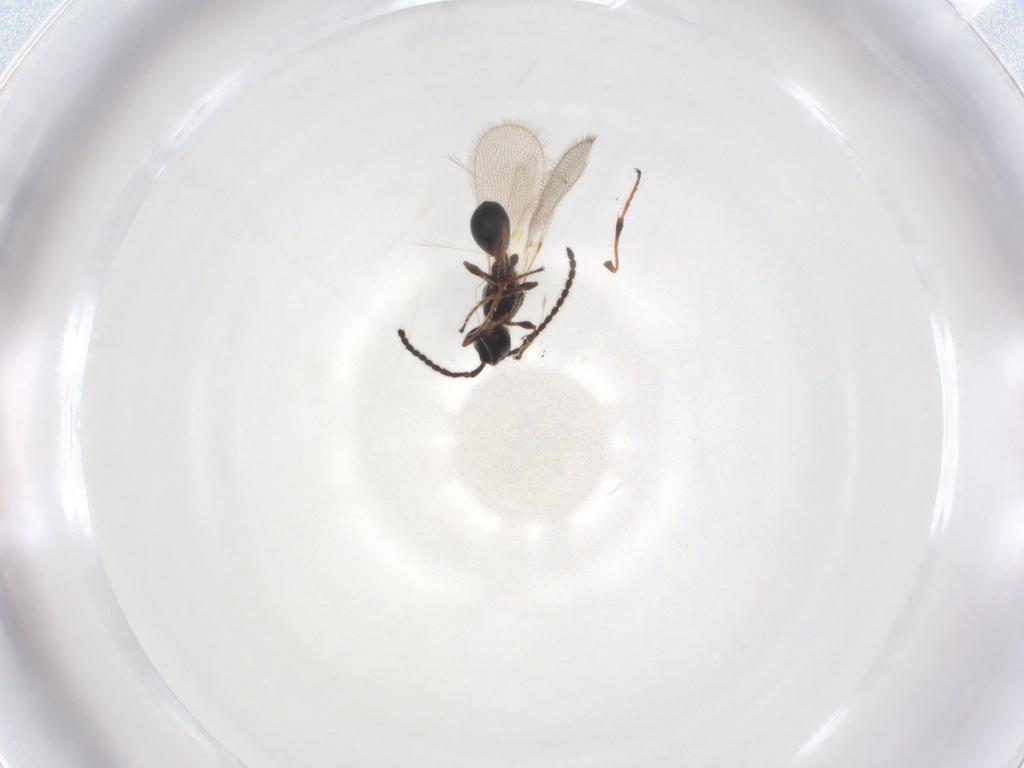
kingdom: Animalia
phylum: Arthropoda
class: Insecta
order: Hymenoptera
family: Diapriidae
